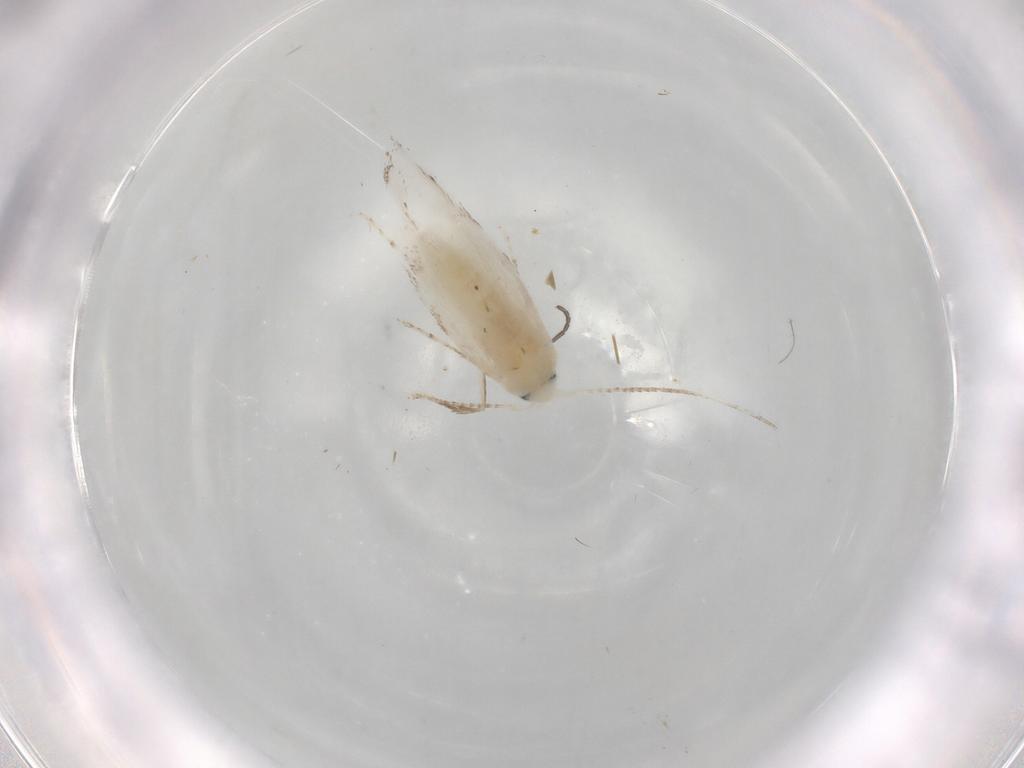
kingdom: Animalia
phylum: Arthropoda
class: Insecta
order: Lepidoptera
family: Lyonetiidae
